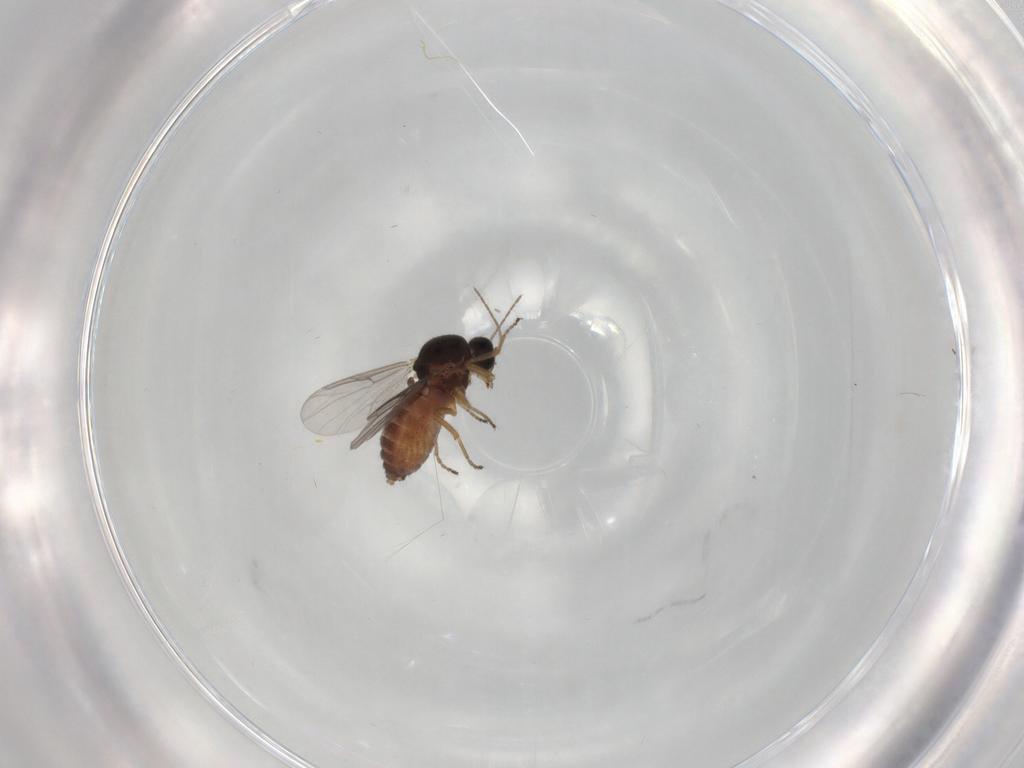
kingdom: Animalia
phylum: Arthropoda
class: Insecta
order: Diptera
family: Ceratopogonidae
